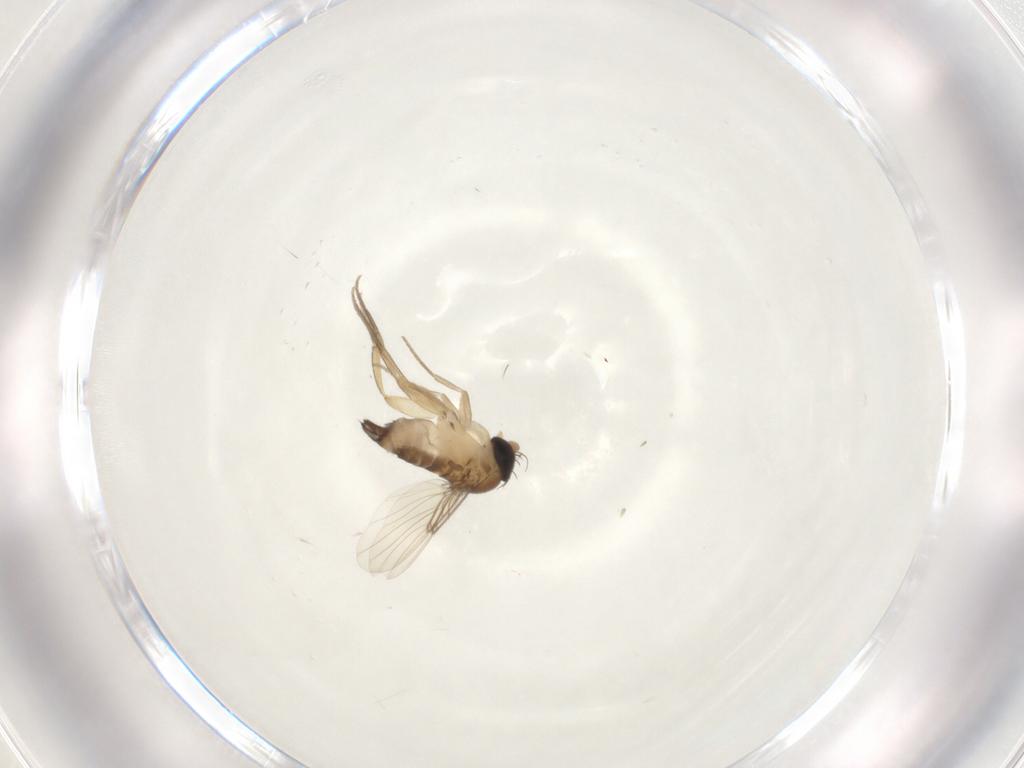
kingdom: Animalia
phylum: Arthropoda
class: Insecta
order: Diptera
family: Phoridae
